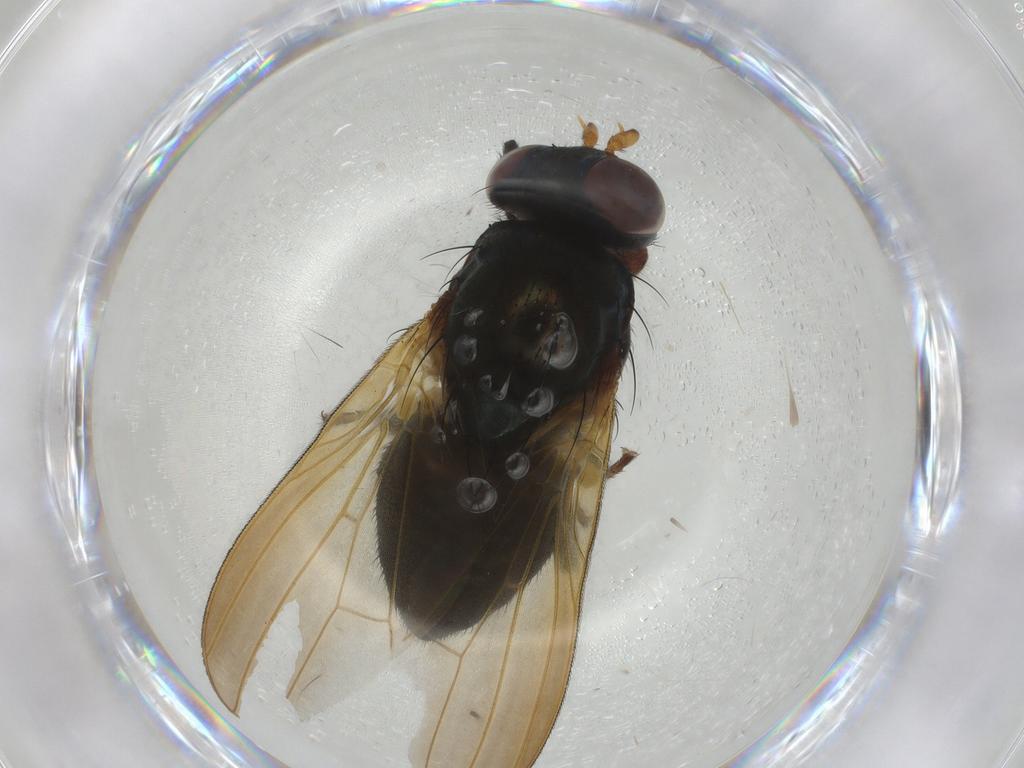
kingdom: Animalia
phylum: Arthropoda
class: Insecta
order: Diptera
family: Lauxaniidae
